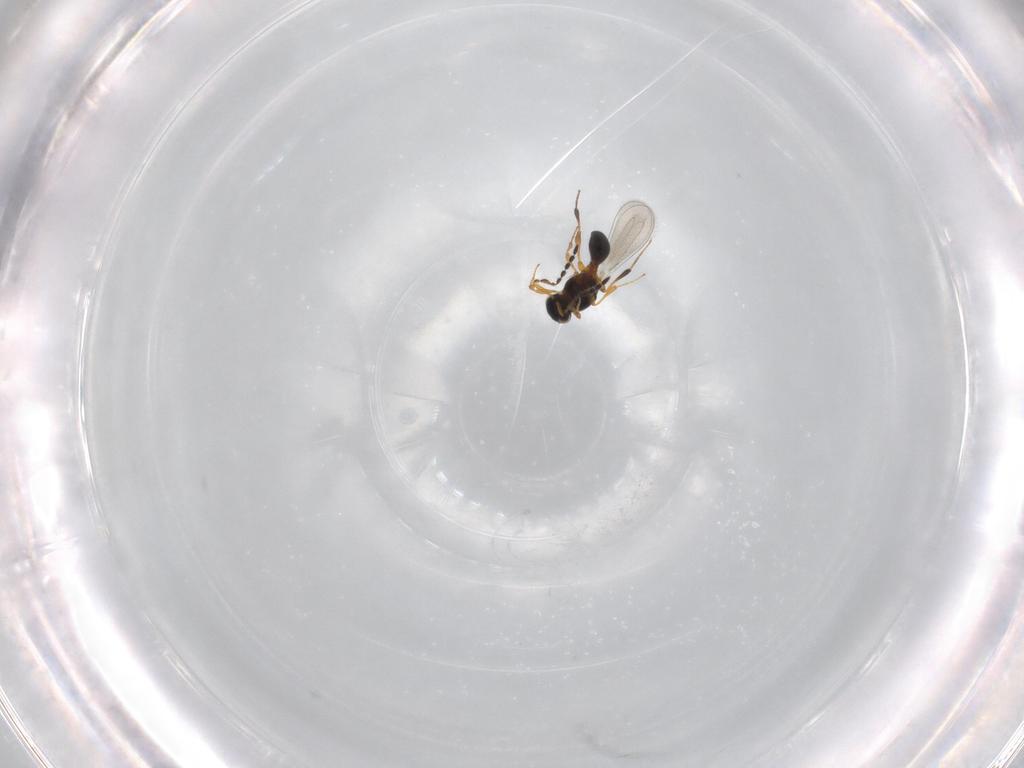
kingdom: Animalia
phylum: Arthropoda
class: Insecta
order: Hymenoptera
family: Platygastridae
